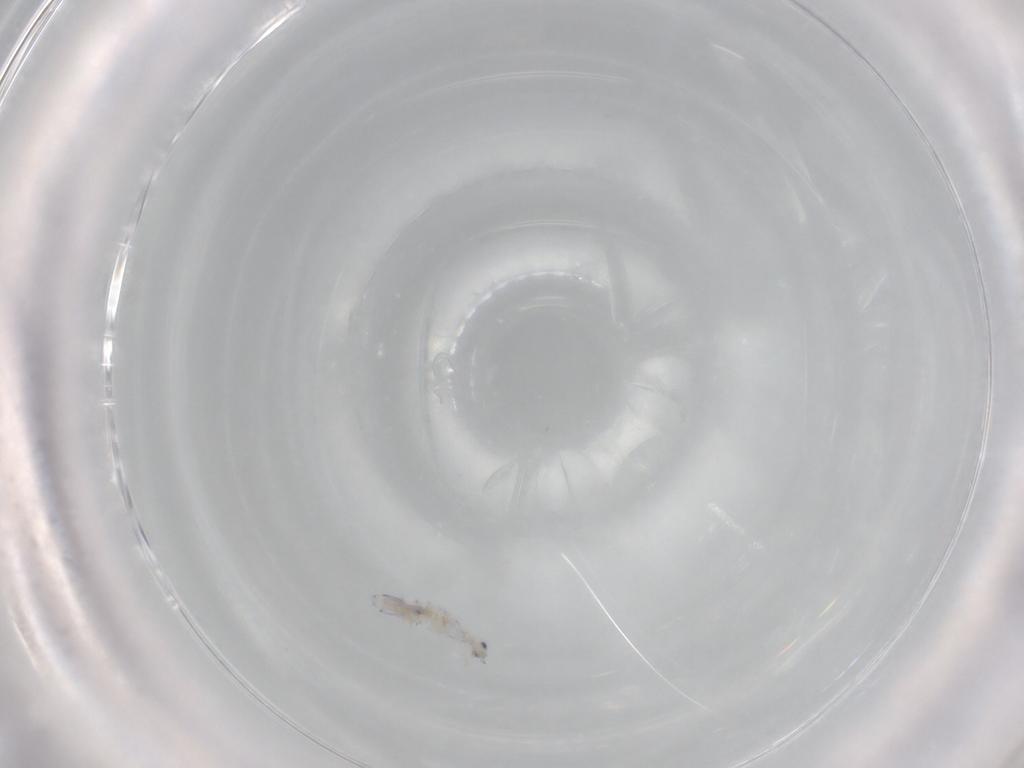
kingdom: Animalia
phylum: Arthropoda
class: Collembola
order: Entomobryomorpha
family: Entomobryidae
